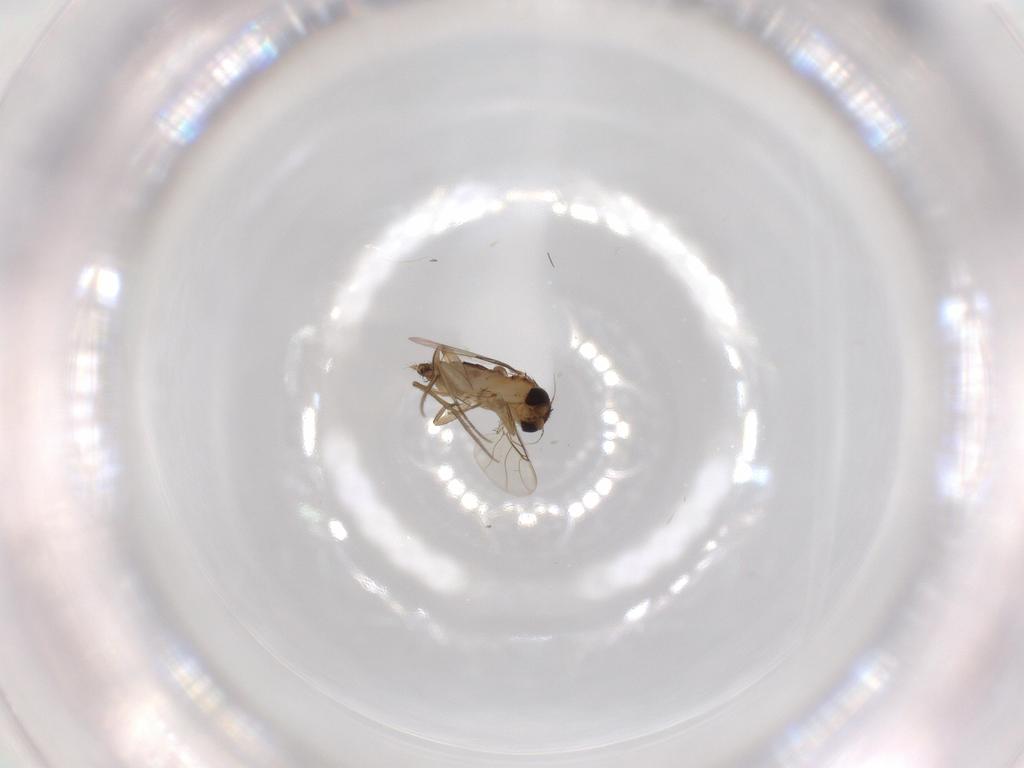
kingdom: Animalia
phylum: Arthropoda
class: Insecta
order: Diptera
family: Phoridae
